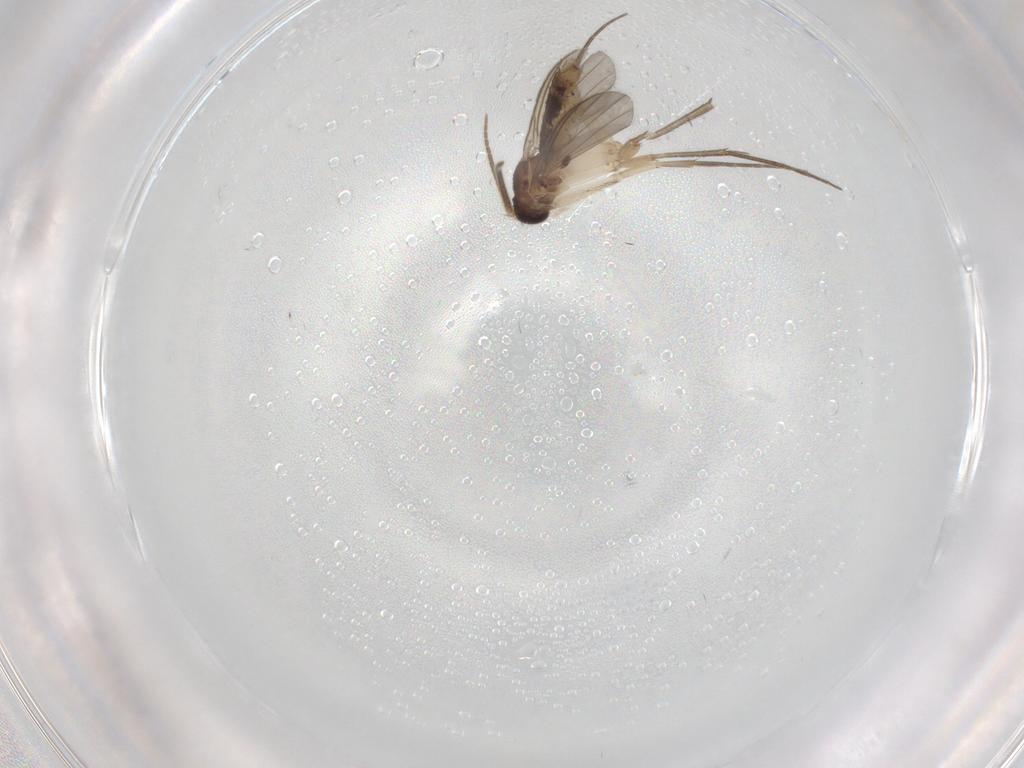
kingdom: Animalia
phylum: Arthropoda
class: Insecta
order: Diptera
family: Mycetophilidae
